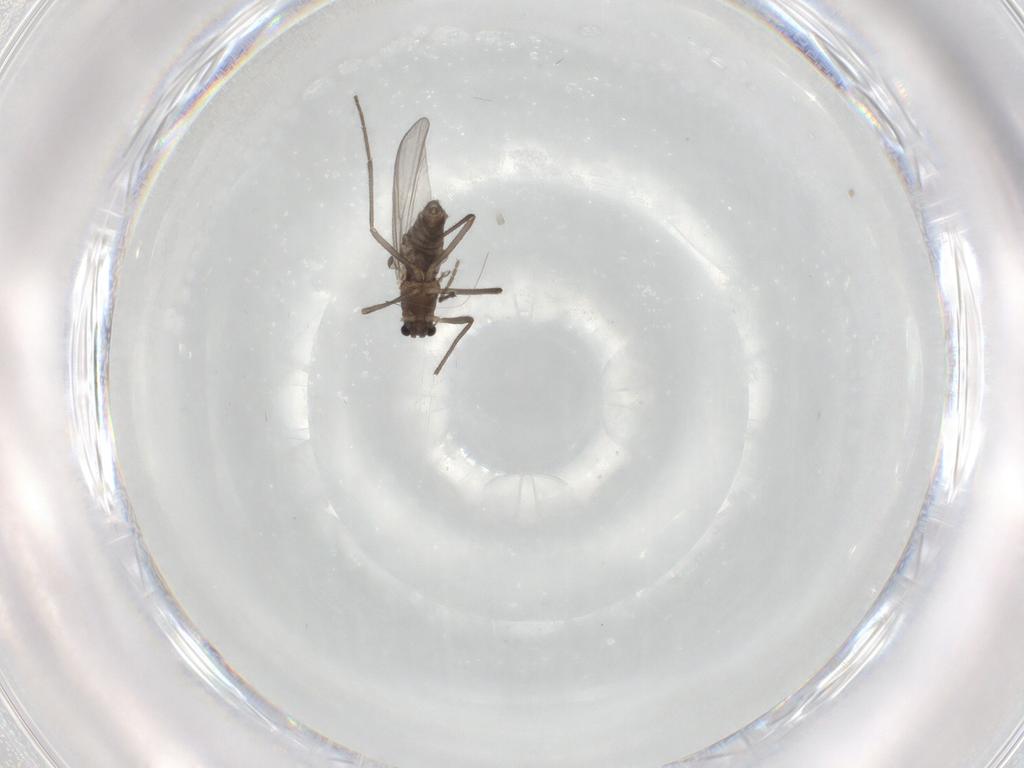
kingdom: Animalia
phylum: Arthropoda
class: Insecta
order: Diptera
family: Chironomidae
